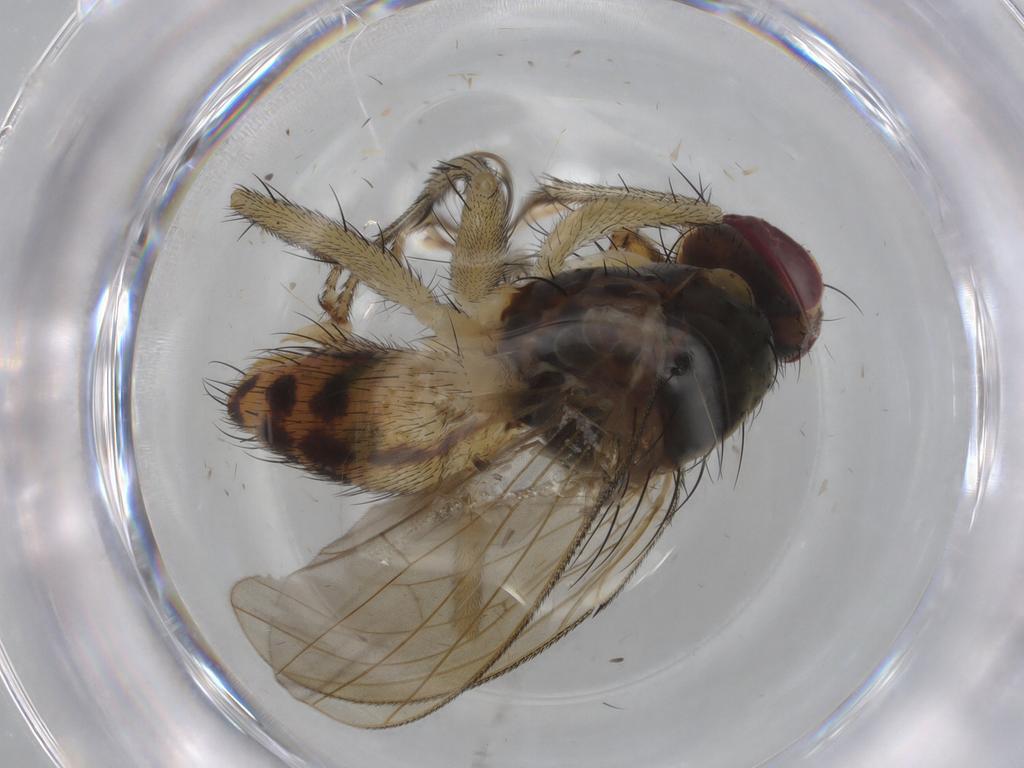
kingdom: Animalia
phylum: Arthropoda
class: Insecta
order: Diptera
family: Muscidae
